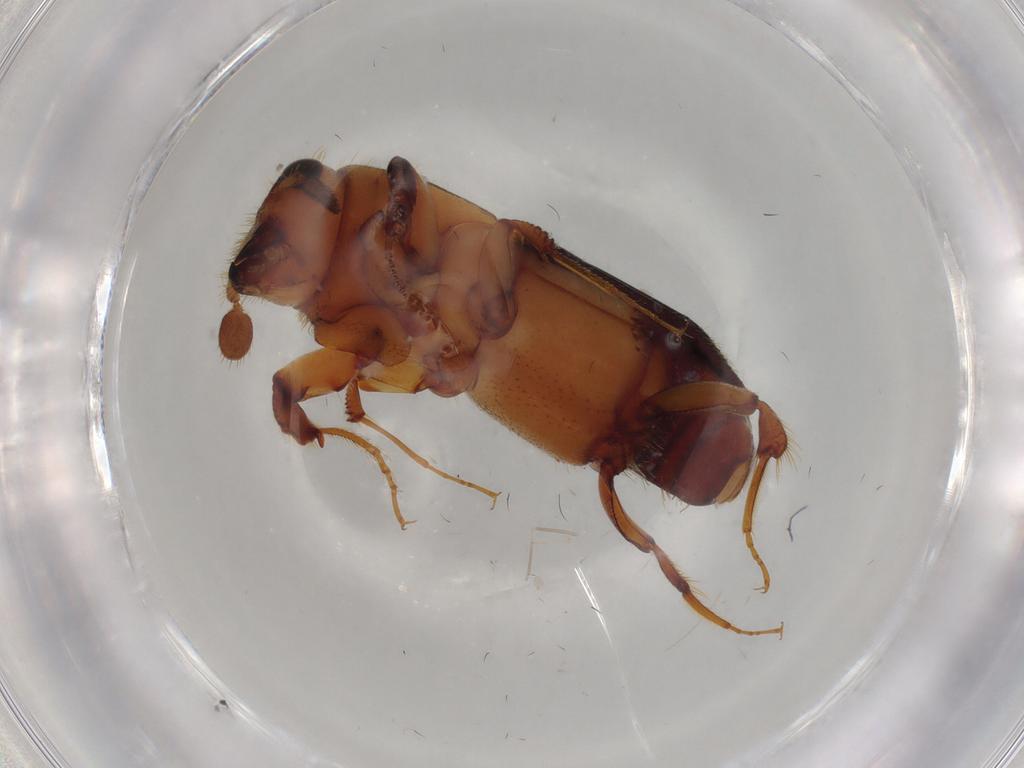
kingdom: Animalia
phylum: Arthropoda
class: Insecta
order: Coleoptera
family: Curculionidae
